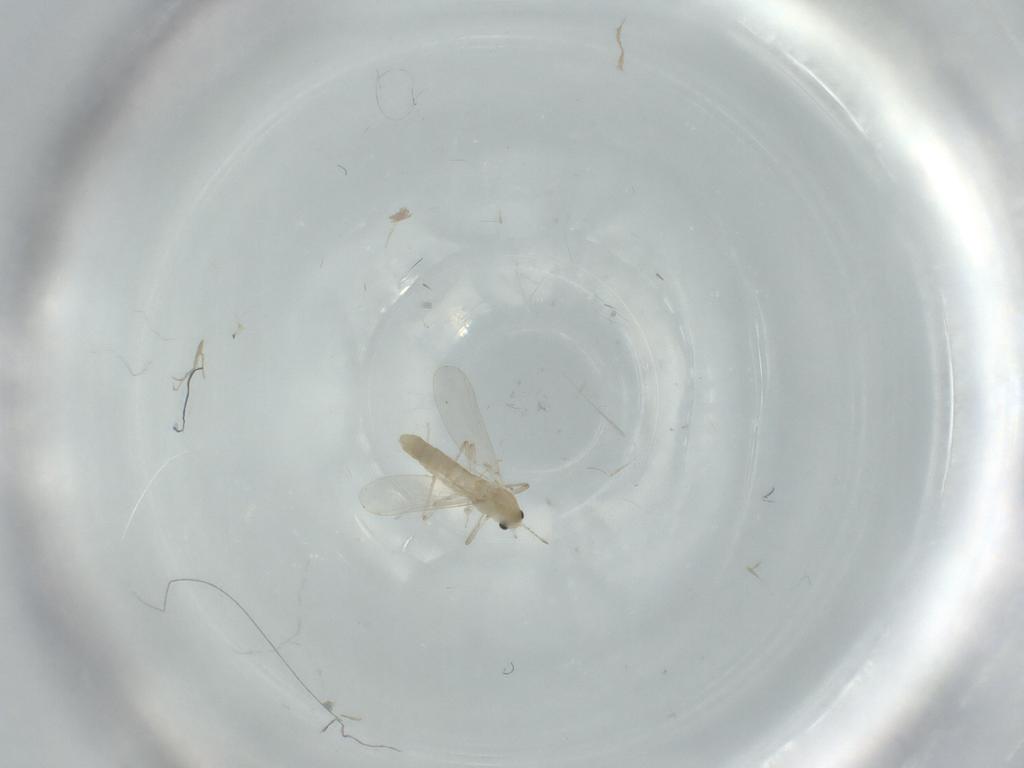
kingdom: Animalia
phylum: Arthropoda
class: Insecta
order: Diptera
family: Chironomidae
